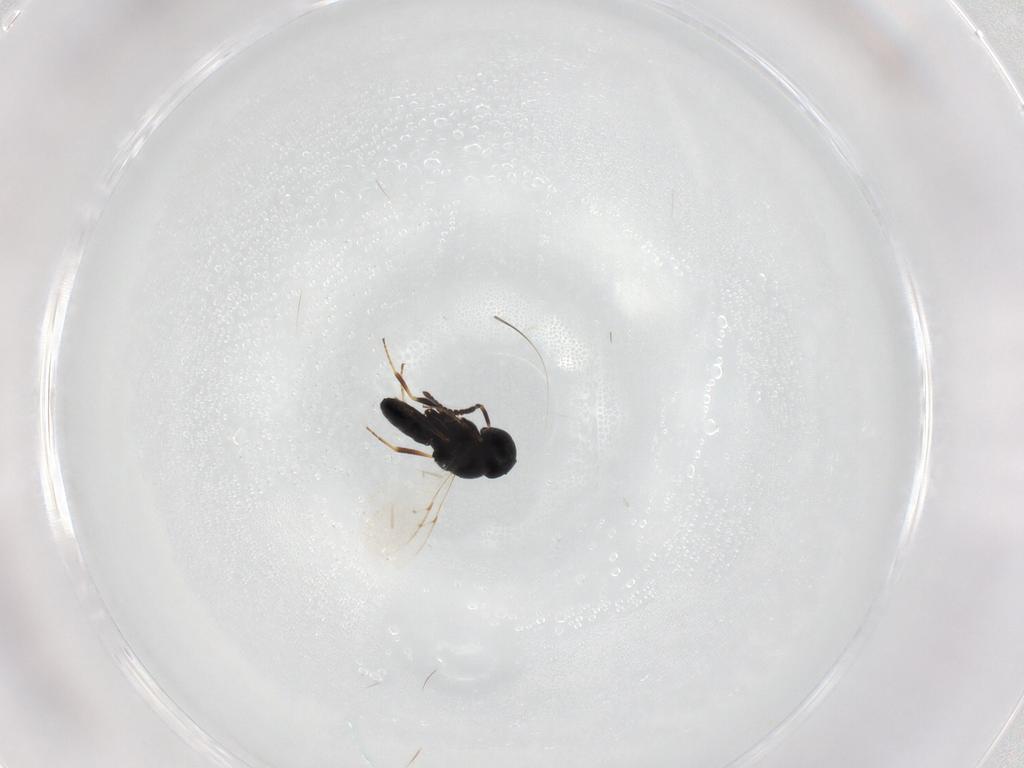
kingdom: Animalia
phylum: Arthropoda
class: Insecta
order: Hymenoptera
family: Scelionidae
